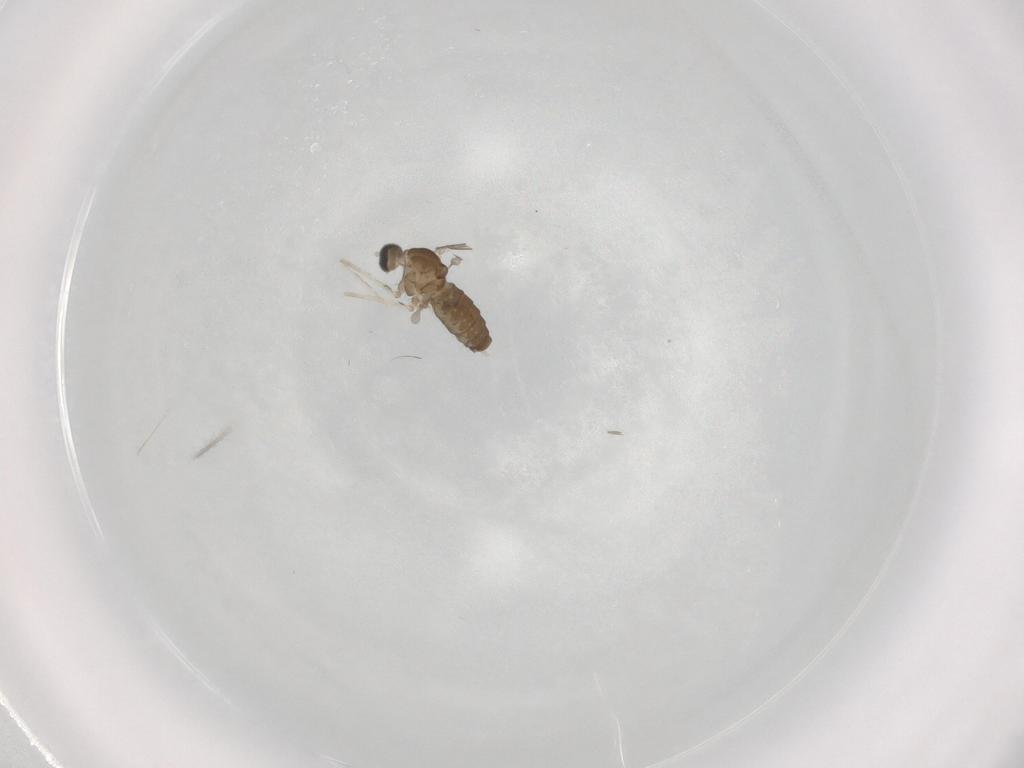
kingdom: Animalia
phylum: Arthropoda
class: Insecta
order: Diptera
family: Cecidomyiidae
